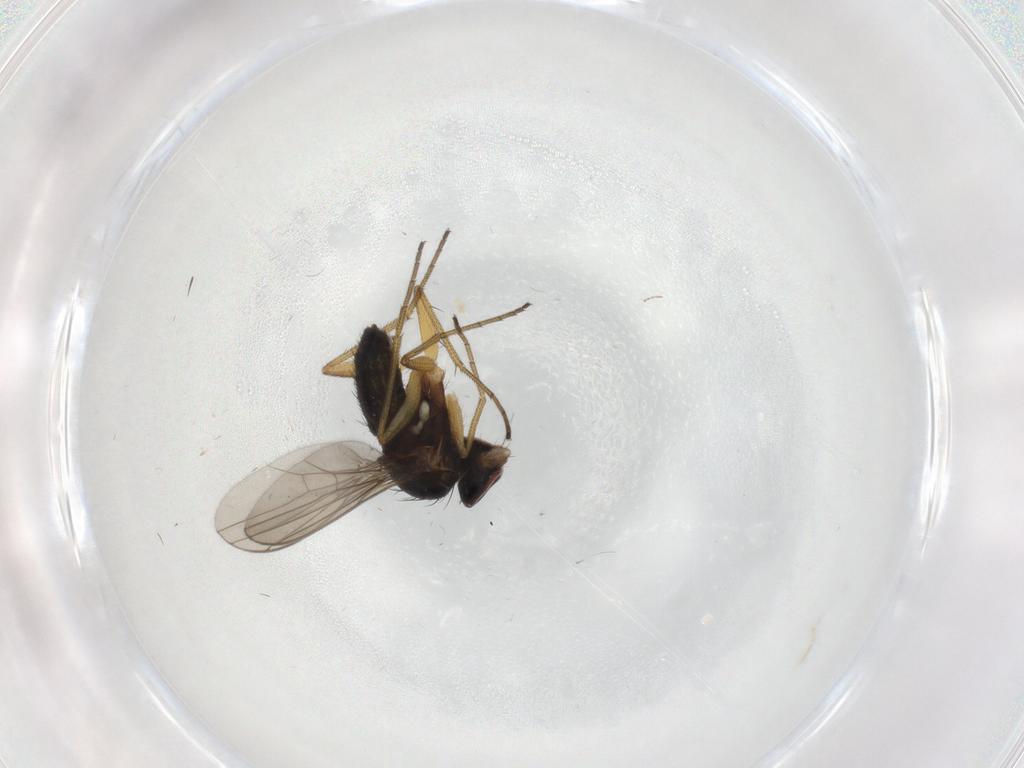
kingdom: Animalia
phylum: Arthropoda
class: Insecta
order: Diptera
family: Dolichopodidae
